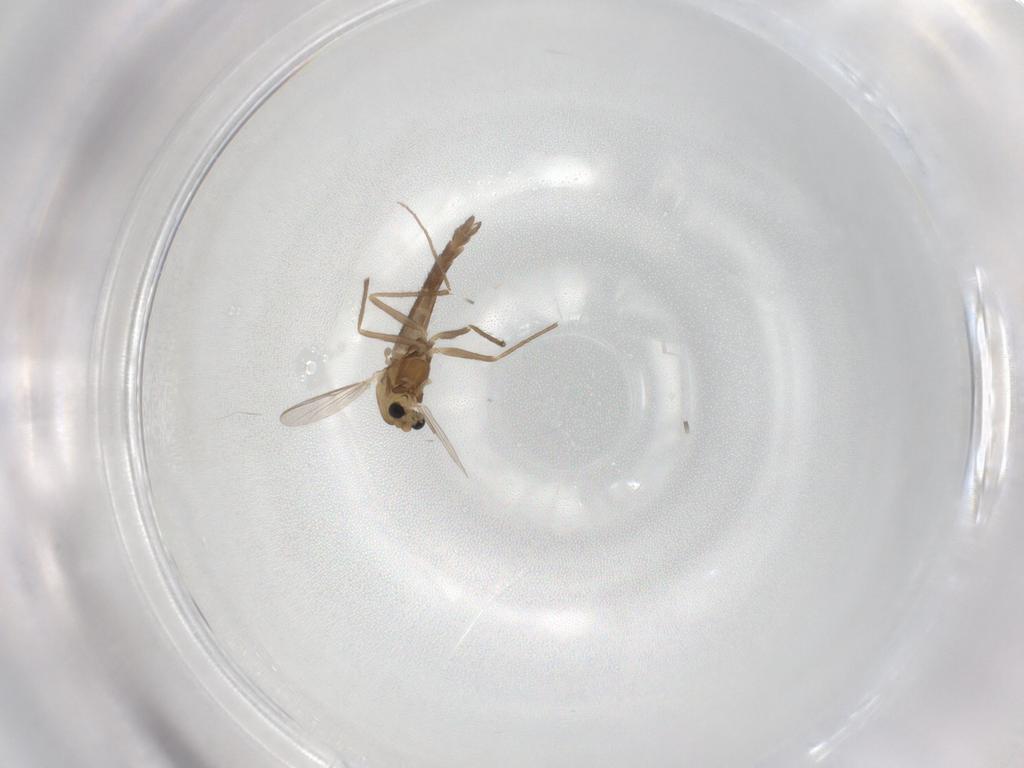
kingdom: Animalia
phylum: Arthropoda
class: Insecta
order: Diptera
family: Chironomidae
